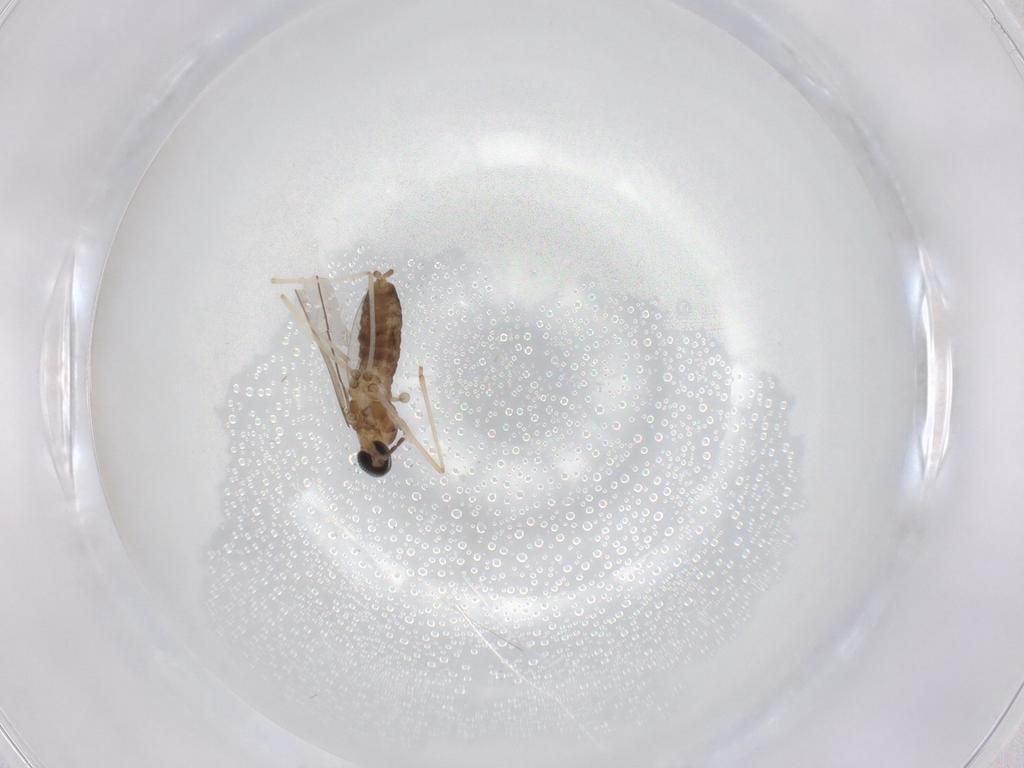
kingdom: Animalia
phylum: Arthropoda
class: Insecta
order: Diptera
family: Cecidomyiidae
